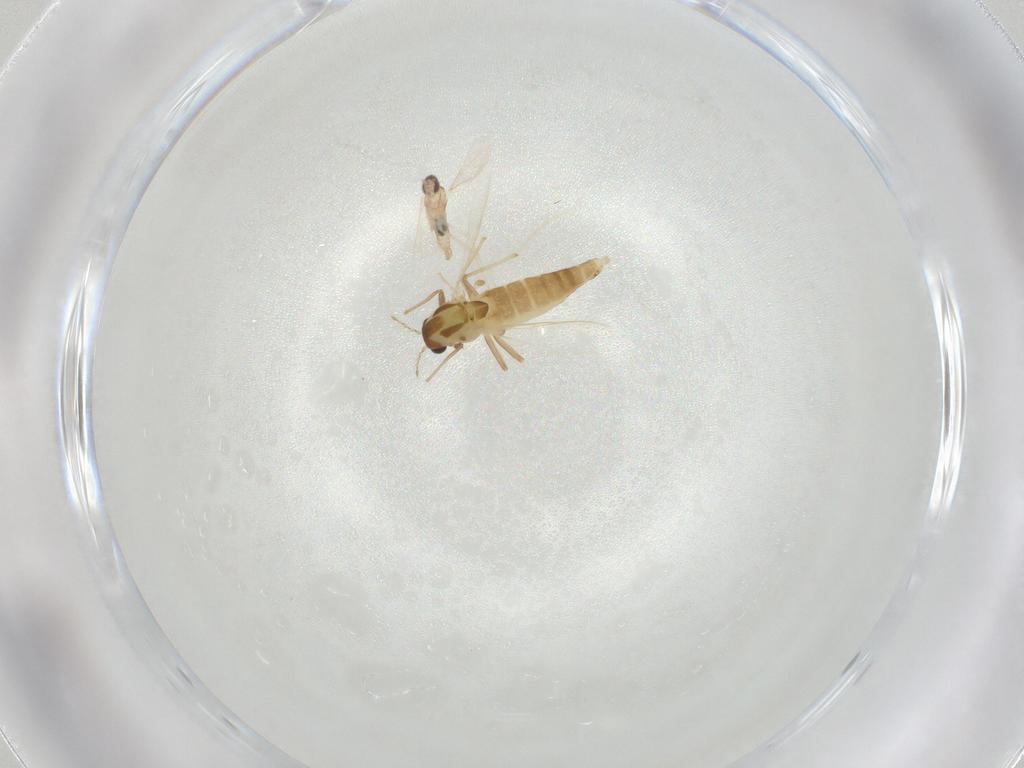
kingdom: Animalia
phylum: Arthropoda
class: Insecta
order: Diptera
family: Cecidomyiidae
